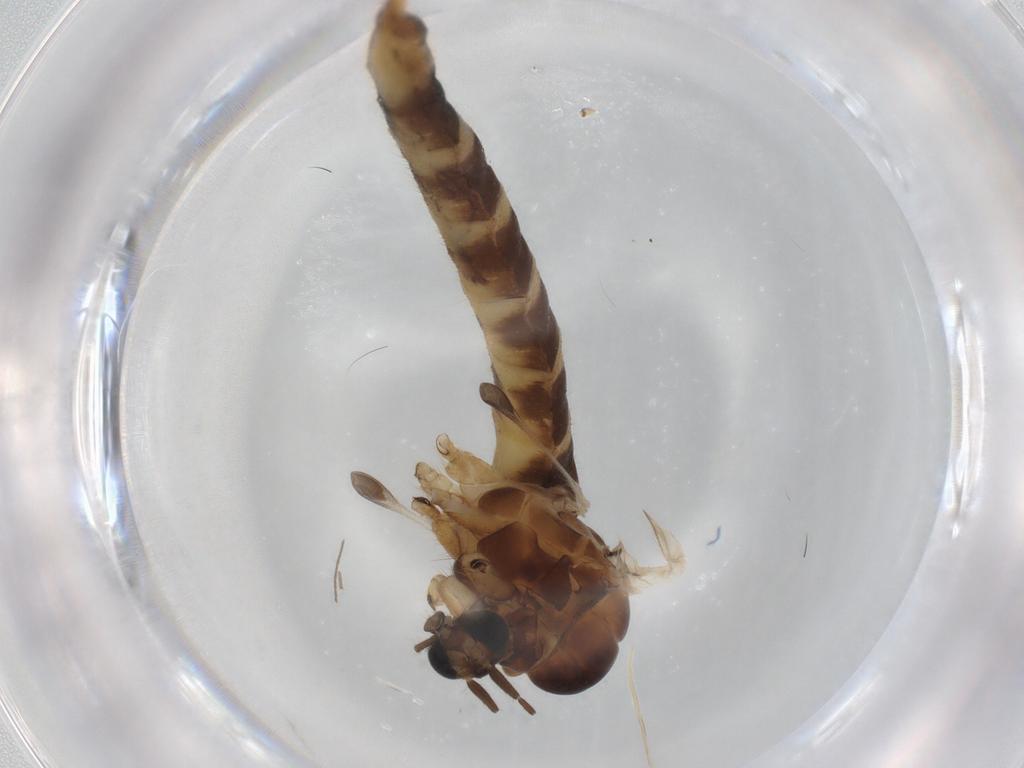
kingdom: Animalia
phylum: Arthropoda
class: Insecta
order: Diptera
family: Trichoceridae
